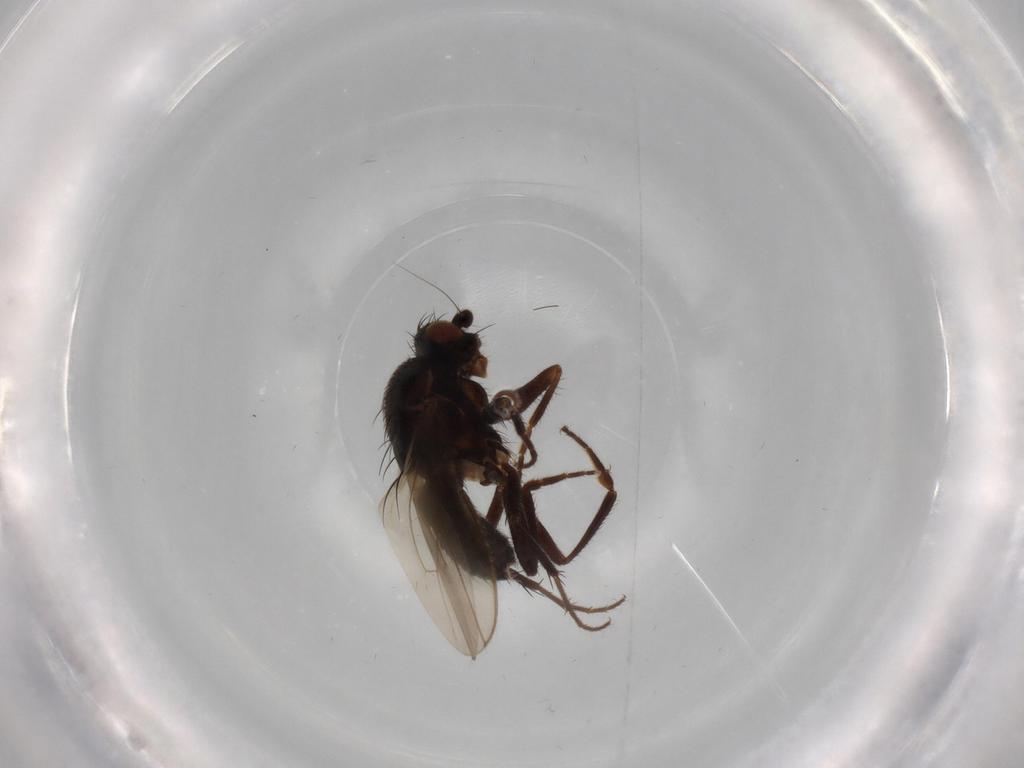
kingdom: Animalia
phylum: Arthropoda
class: Insecta
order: Diptera
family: Sphaeroceridae
